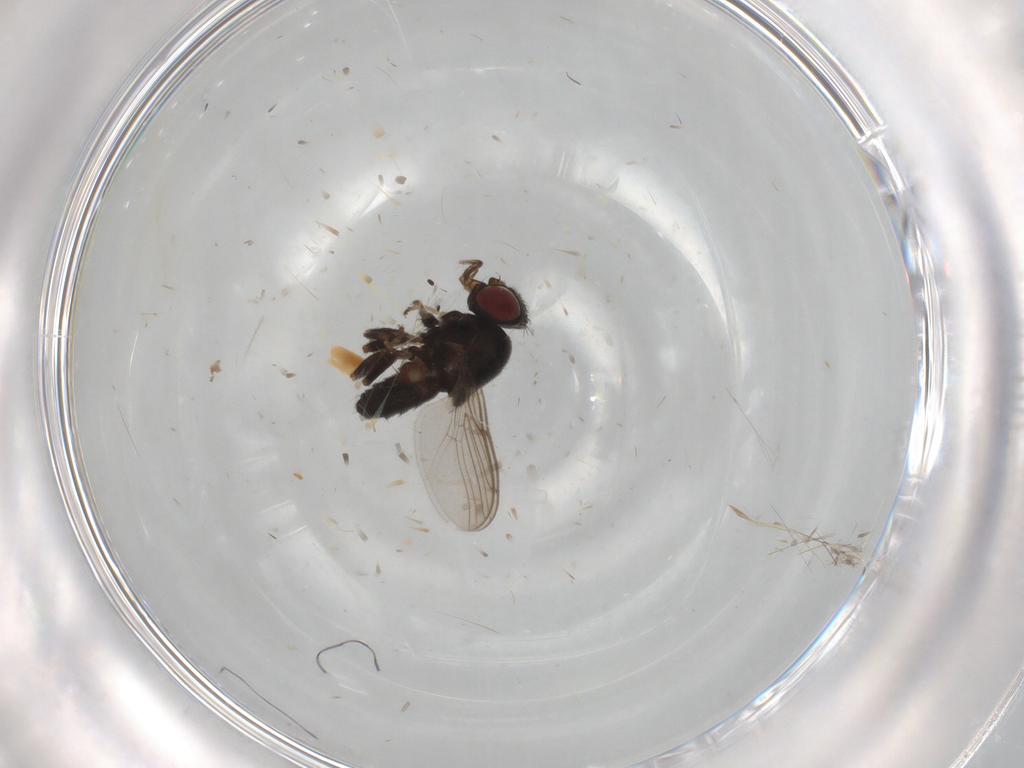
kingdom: Animalia
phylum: Arthropoda
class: Insecta
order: Diptera
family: Chloropidae
